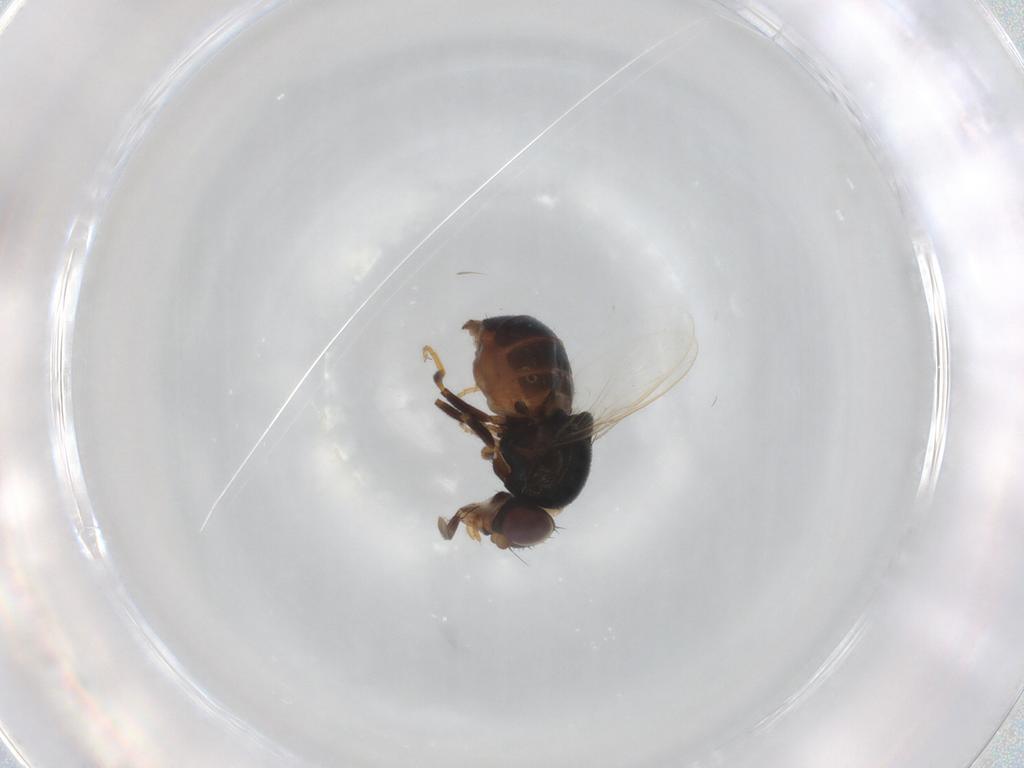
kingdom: Animalia
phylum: Arthropoda
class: Insecta
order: Diptera
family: Chloropidae
